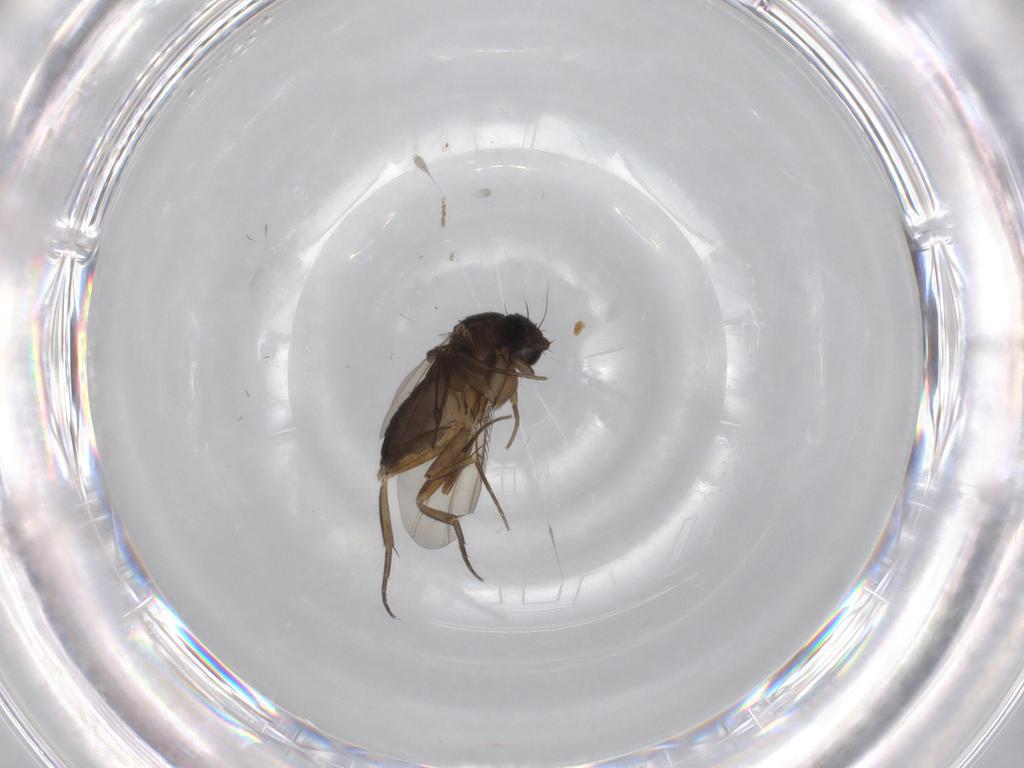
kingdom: Animalia
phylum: Arthropoda
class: Insecta
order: Diptera
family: Phoridae
